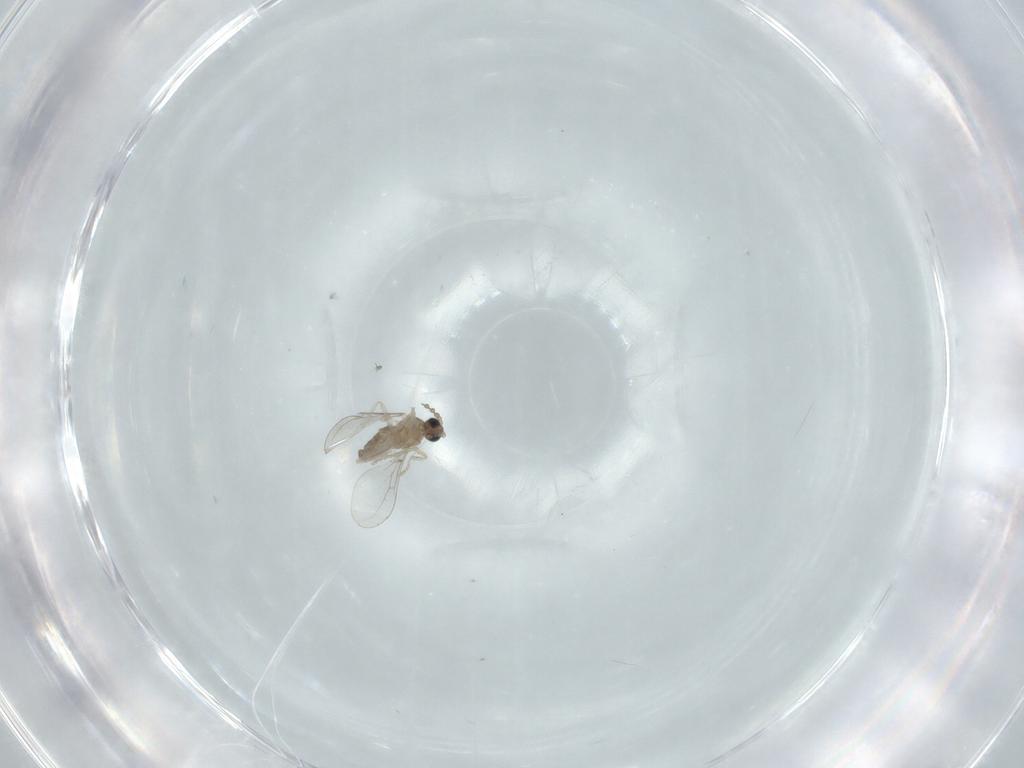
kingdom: Animalia
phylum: Arthropoda
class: Insecta
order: Diptera
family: Cecidomyiidae
